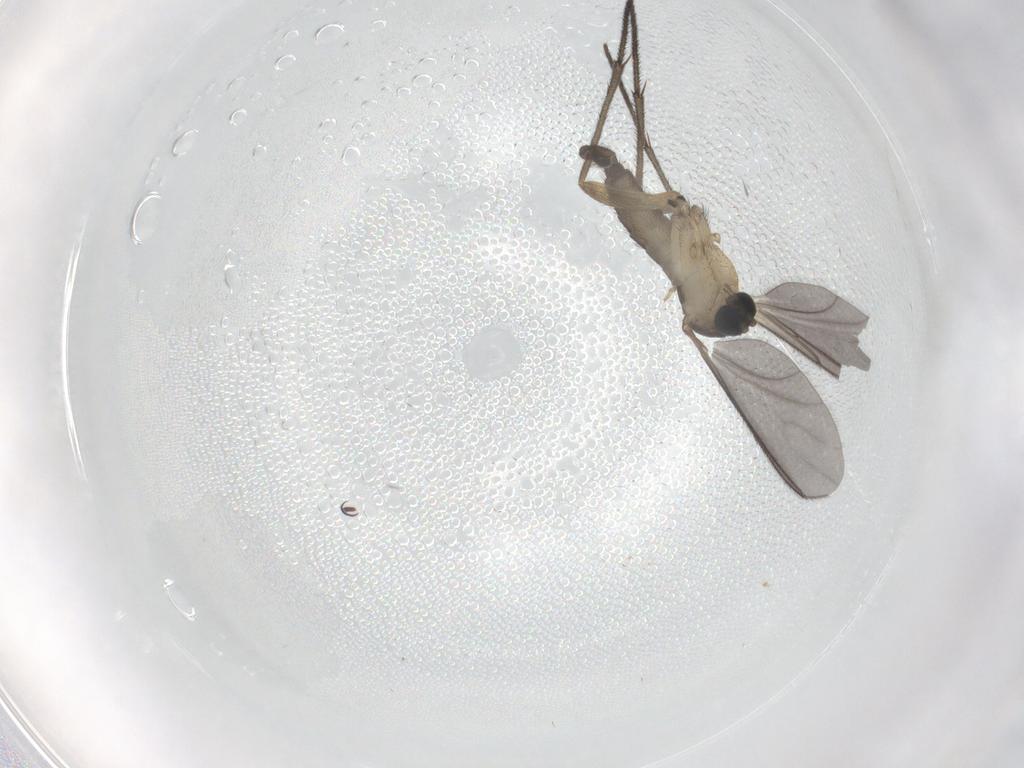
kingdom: Animalia
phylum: Arthropoda
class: Insecta
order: Diptera
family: Sciaridae
